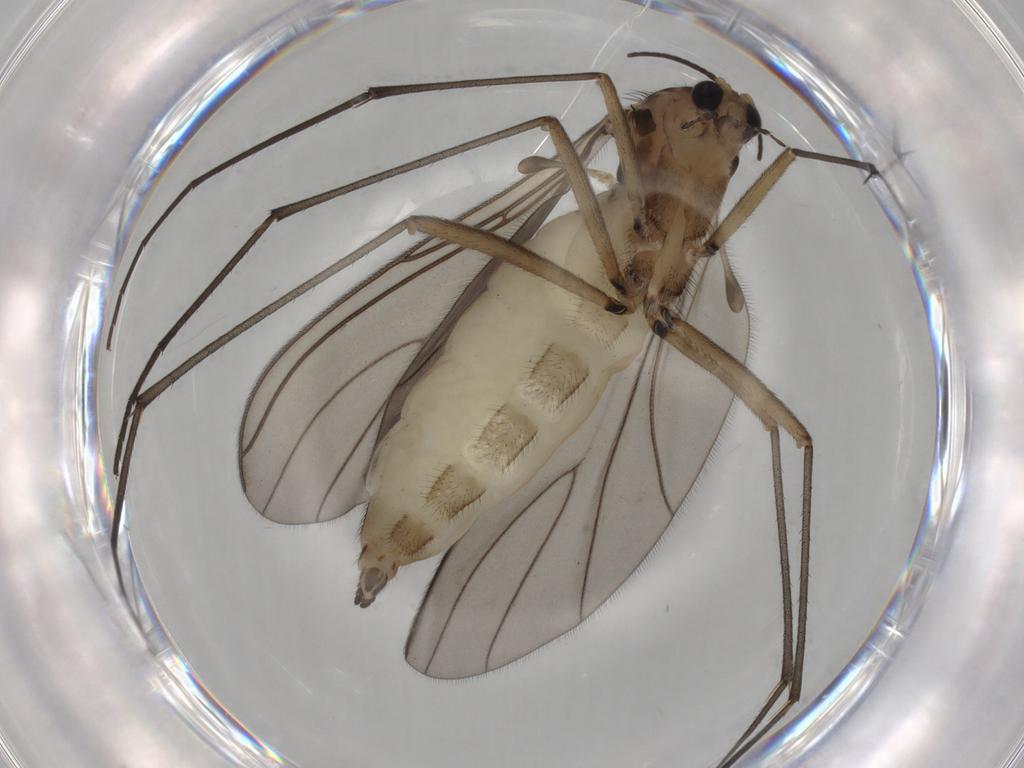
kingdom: Animalia
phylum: Arthropoda
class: Insecta
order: Diptera
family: Sciaridae
